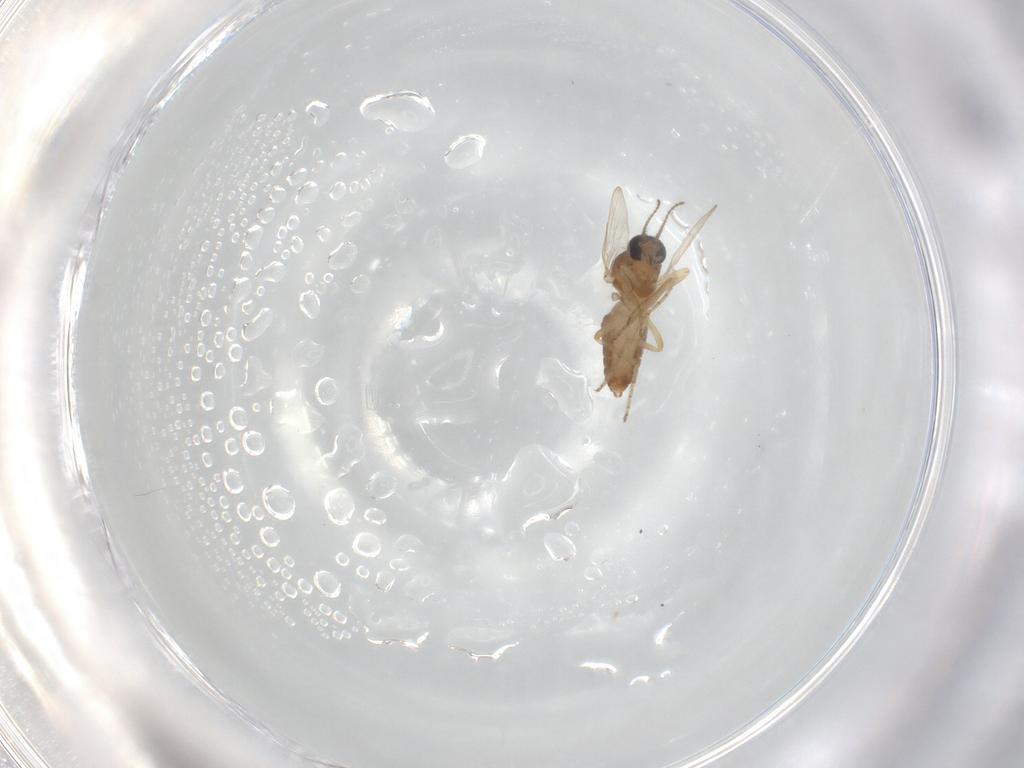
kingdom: Animalia
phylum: Arthropoda
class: Insecta
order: Diptera
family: Ceratopogonidae
